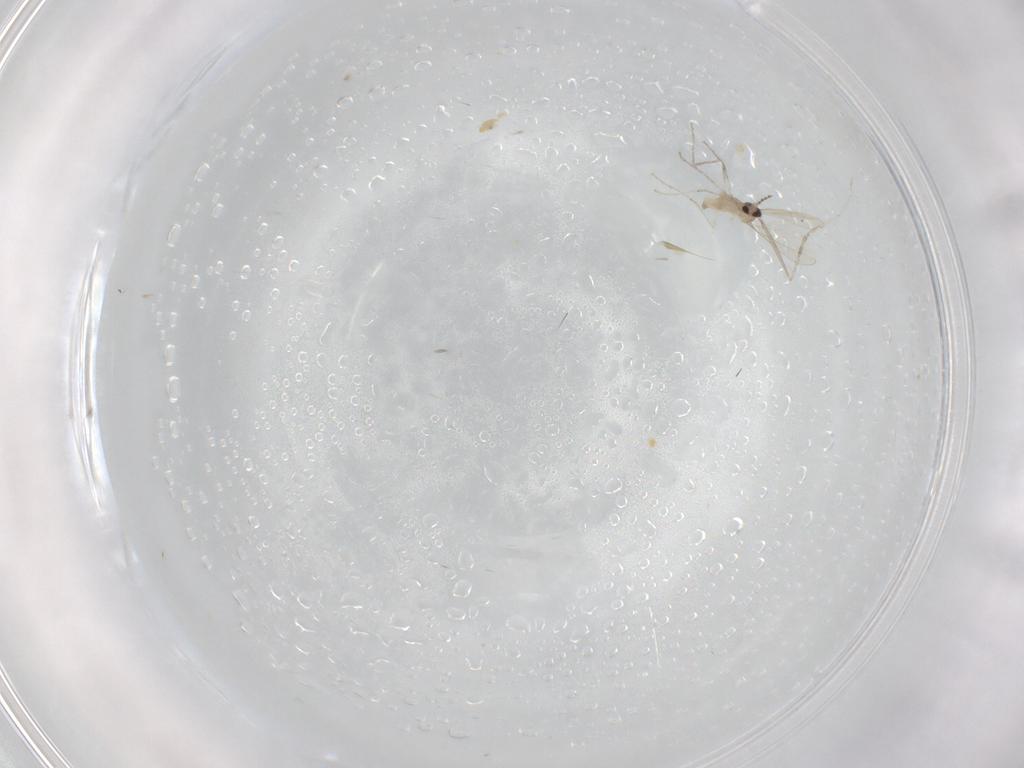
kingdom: Animalia
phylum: Arthropoda
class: Insecta
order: Diptera
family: Cecidomyiidae
